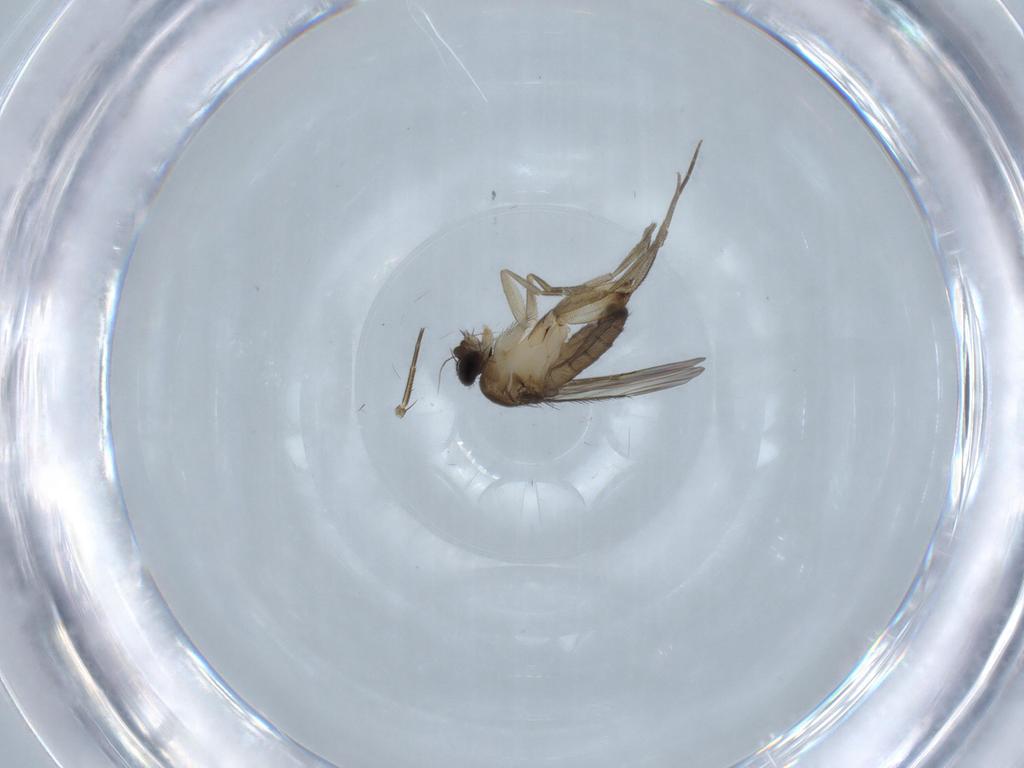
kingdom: Animalia
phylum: Arthropoda
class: Insecta
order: Diptera
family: Phoridae
